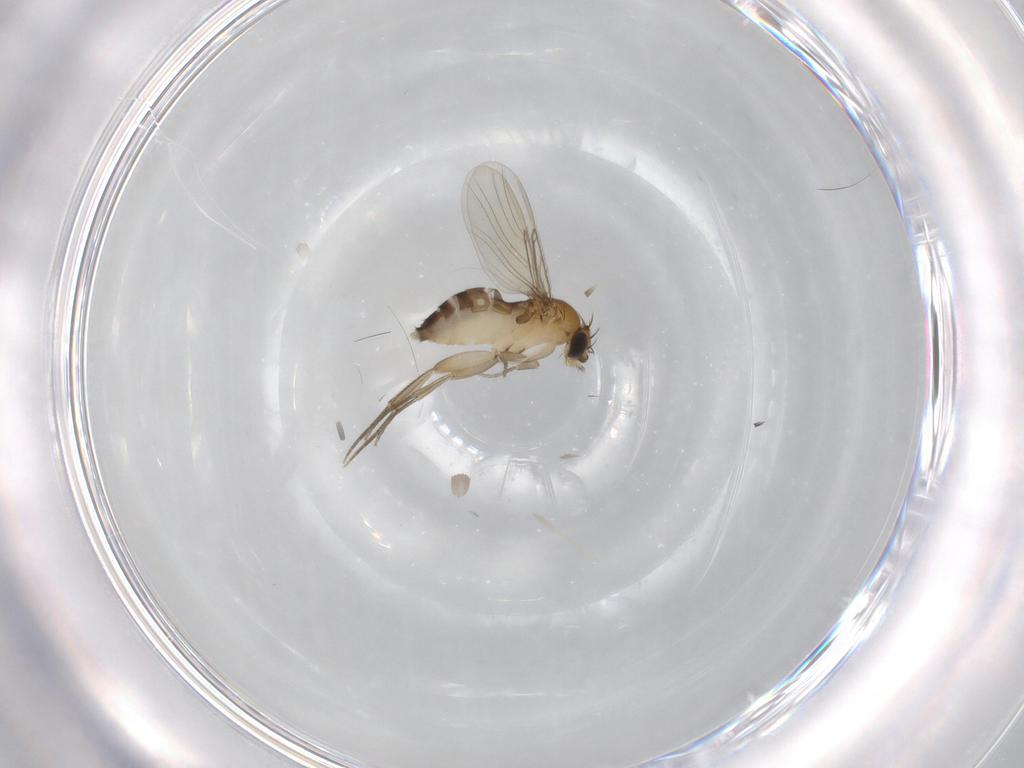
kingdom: Animalia
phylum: Arthropoda
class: Insecta
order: Diptera
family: Phoridae
